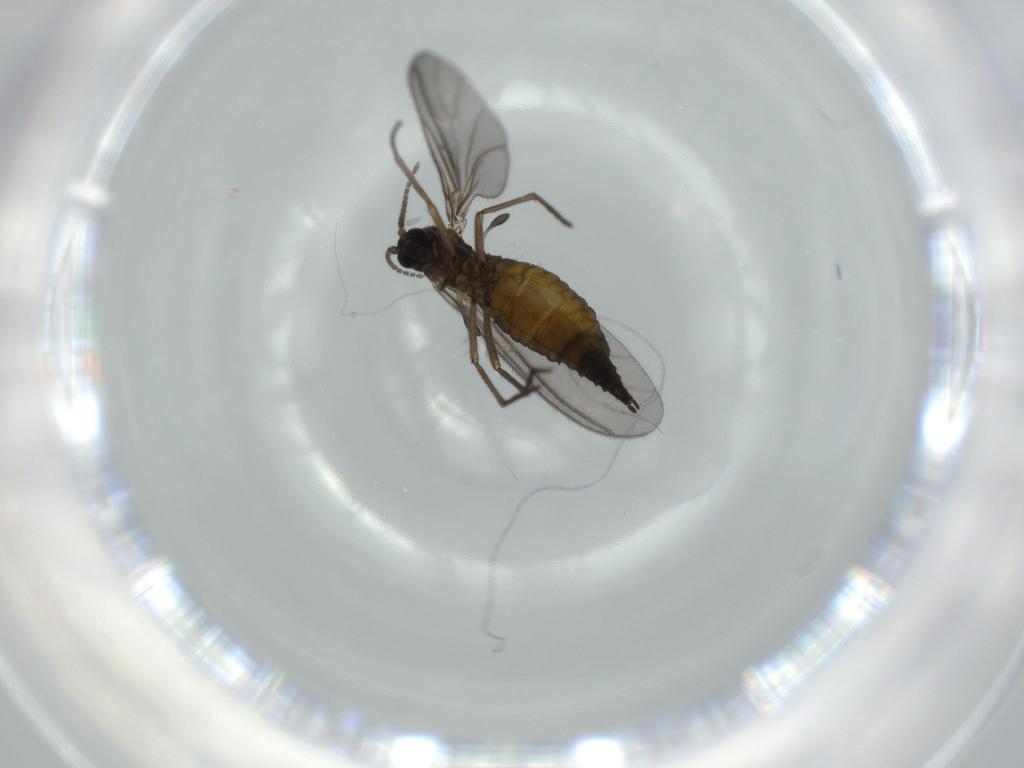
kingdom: Animalia
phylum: Arthropoda
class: Insecta
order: Diptera
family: Sciaridae
